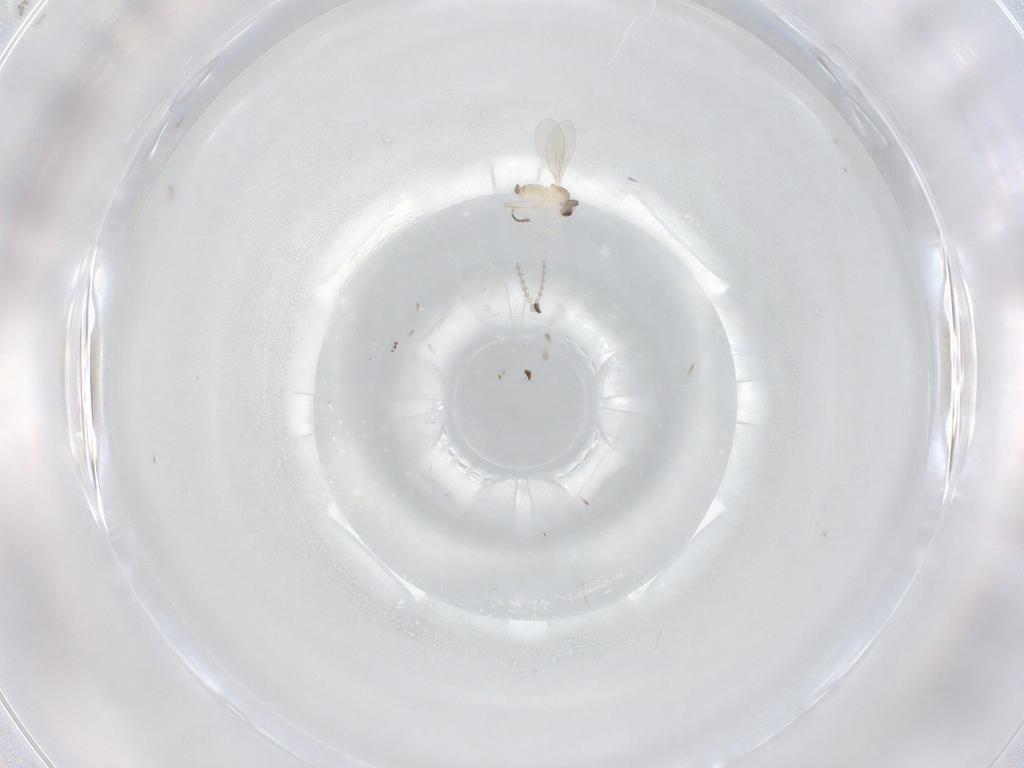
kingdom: Animalia
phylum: Arthropoda
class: Insecta
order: Diptera
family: Cecidomyiidae
